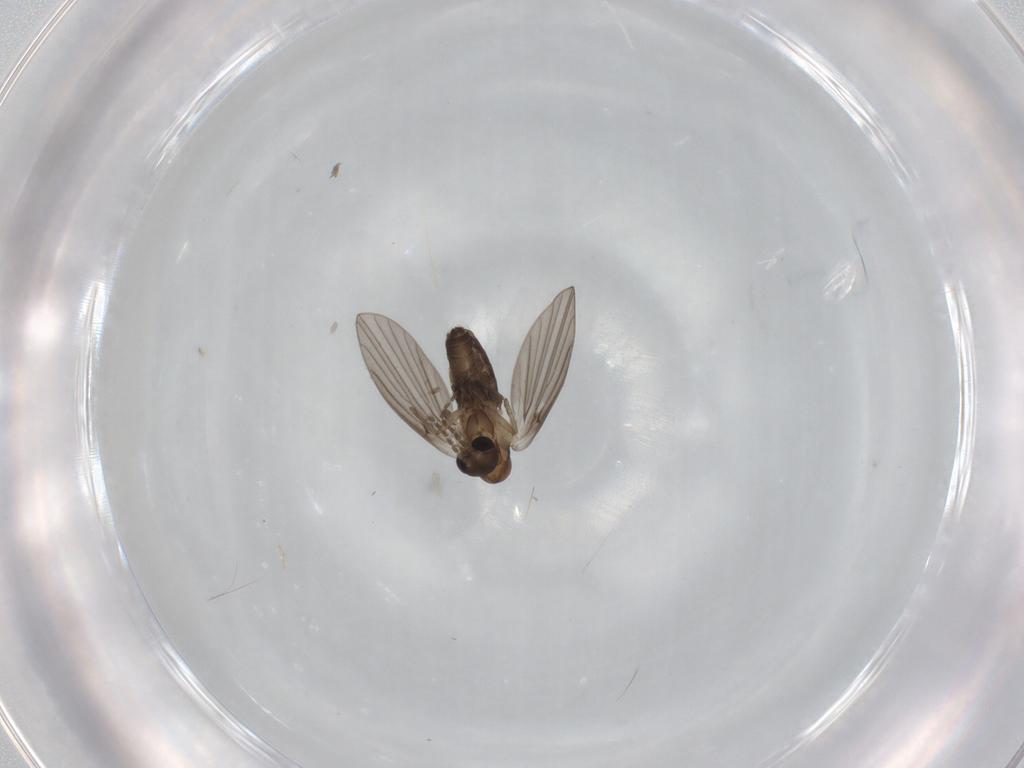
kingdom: Animalia
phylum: Arthropoda
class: Insecta
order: Diptera
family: Psychodidae
